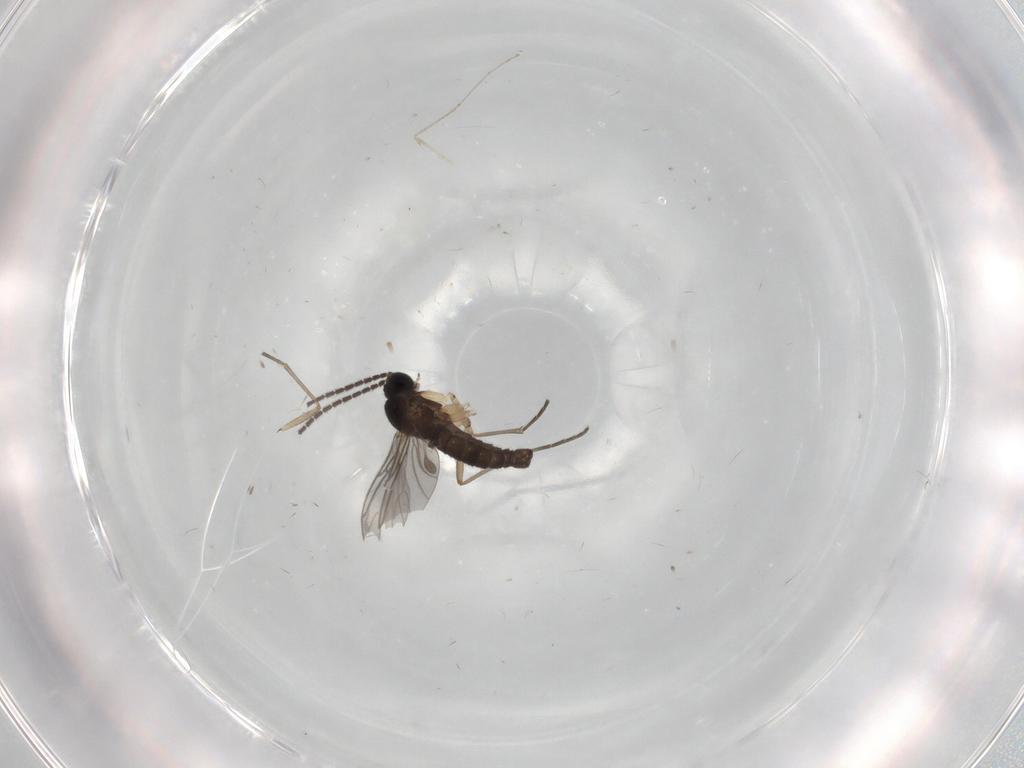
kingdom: Animalia
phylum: Arthropoda
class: Insecta
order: Diptera
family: Sciaridae
